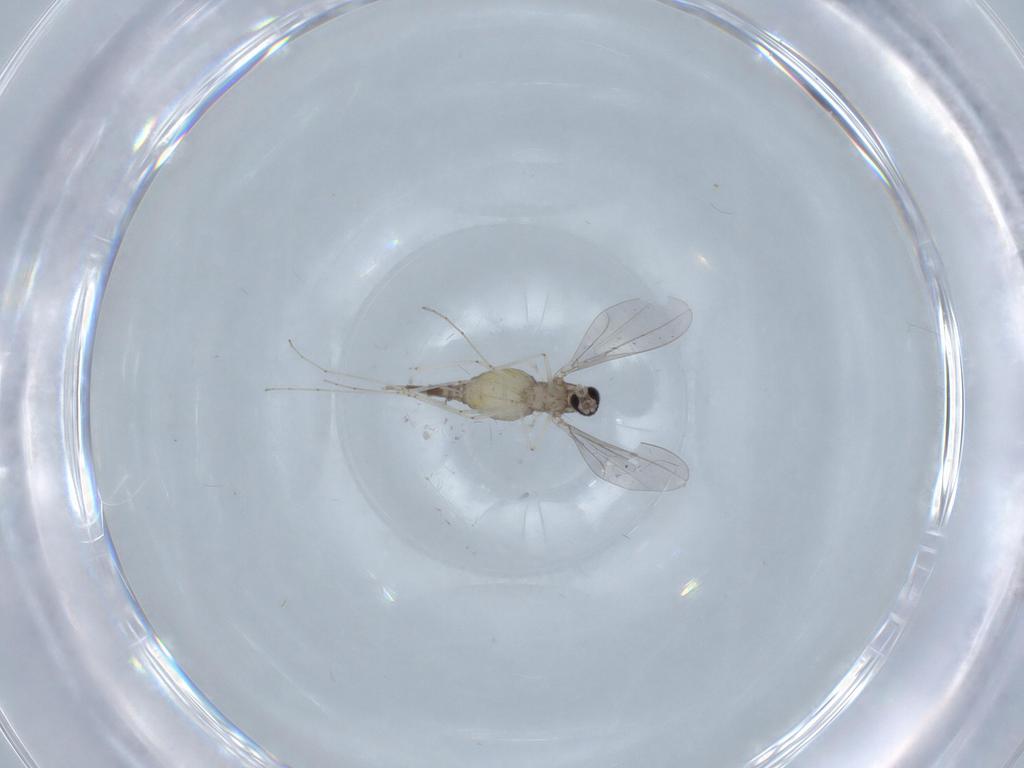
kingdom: Animalia
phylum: Arthropoda
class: Insecta
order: Diptera
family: Cecidomyiidae
